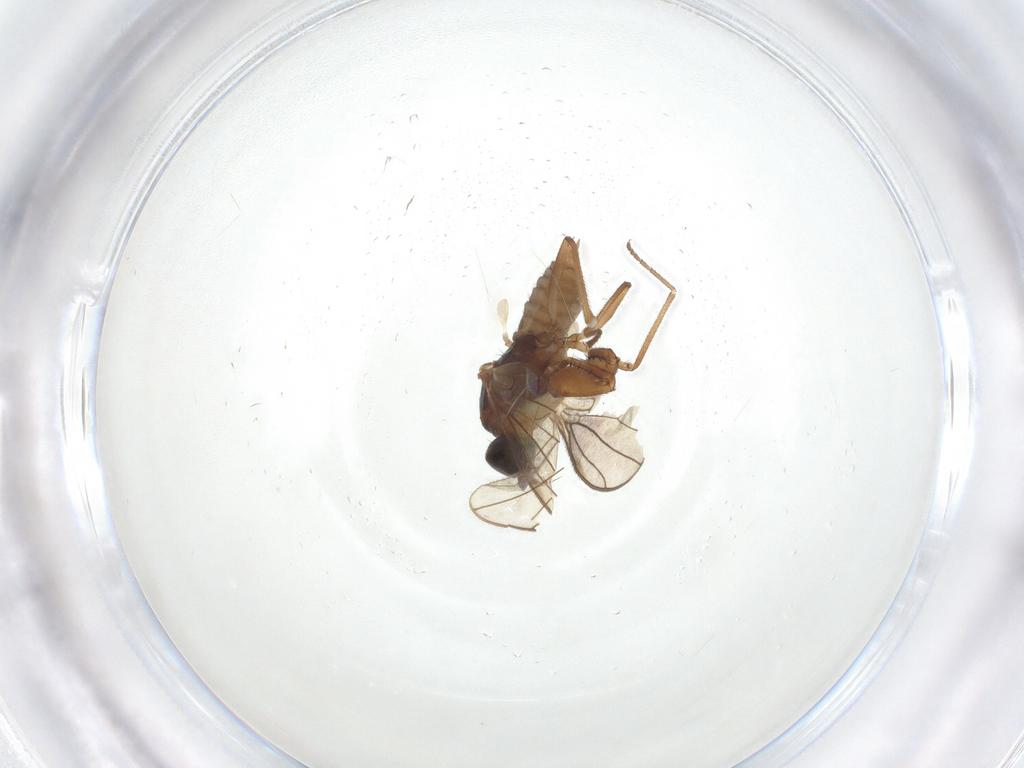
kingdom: Animalia
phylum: Arthropoda
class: Insecta
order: Diptera
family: Empididae
